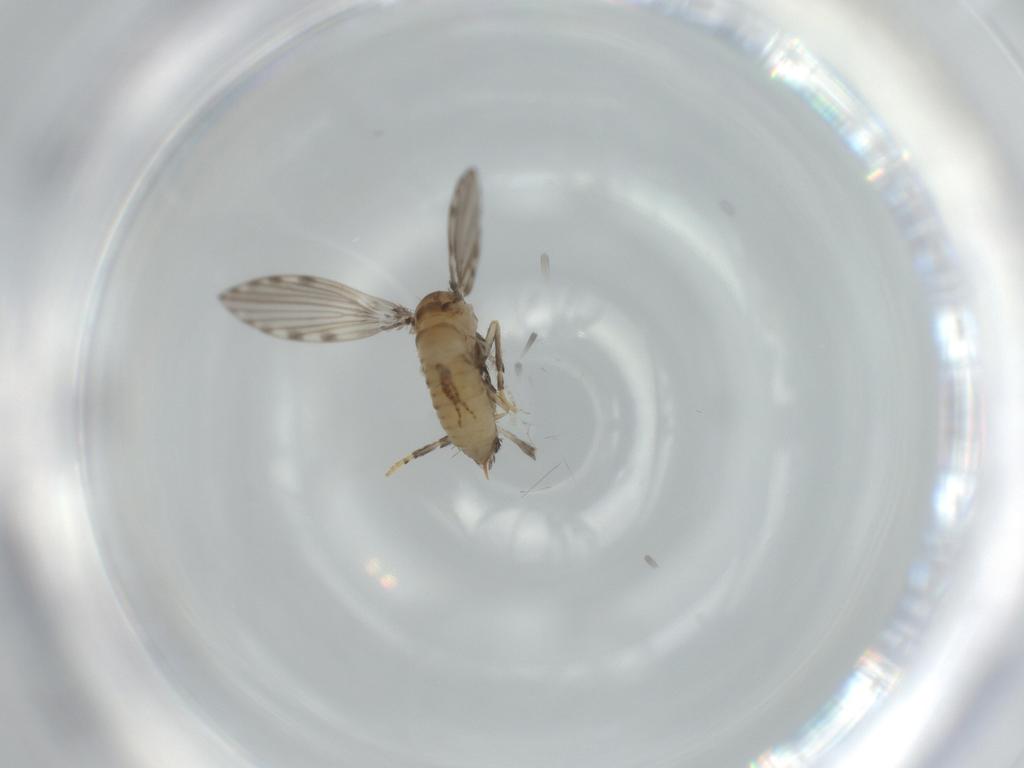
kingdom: Animalia
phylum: Arthropoda
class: Insecta
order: Diptera
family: Psychodidae
